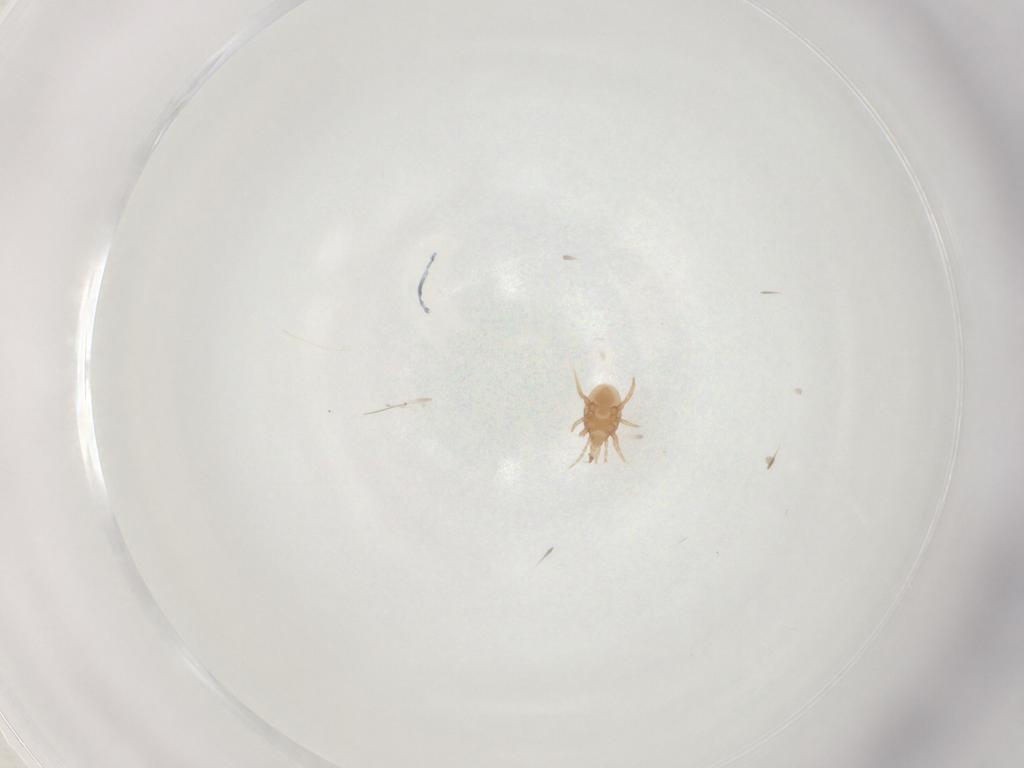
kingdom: Animalia
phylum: Arthropoda
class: Arachnida
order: Mesostigmata
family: Macrochelidae
